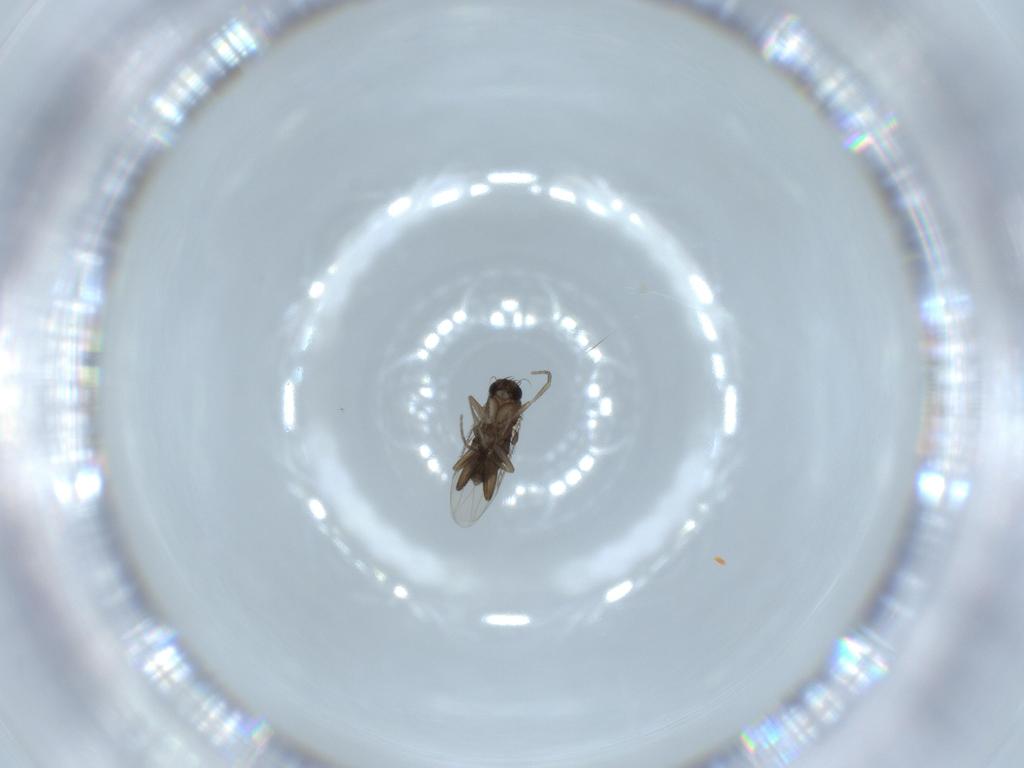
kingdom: Animalia
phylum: Arthropoda
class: Insecta
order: Diptera
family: Phoridae
